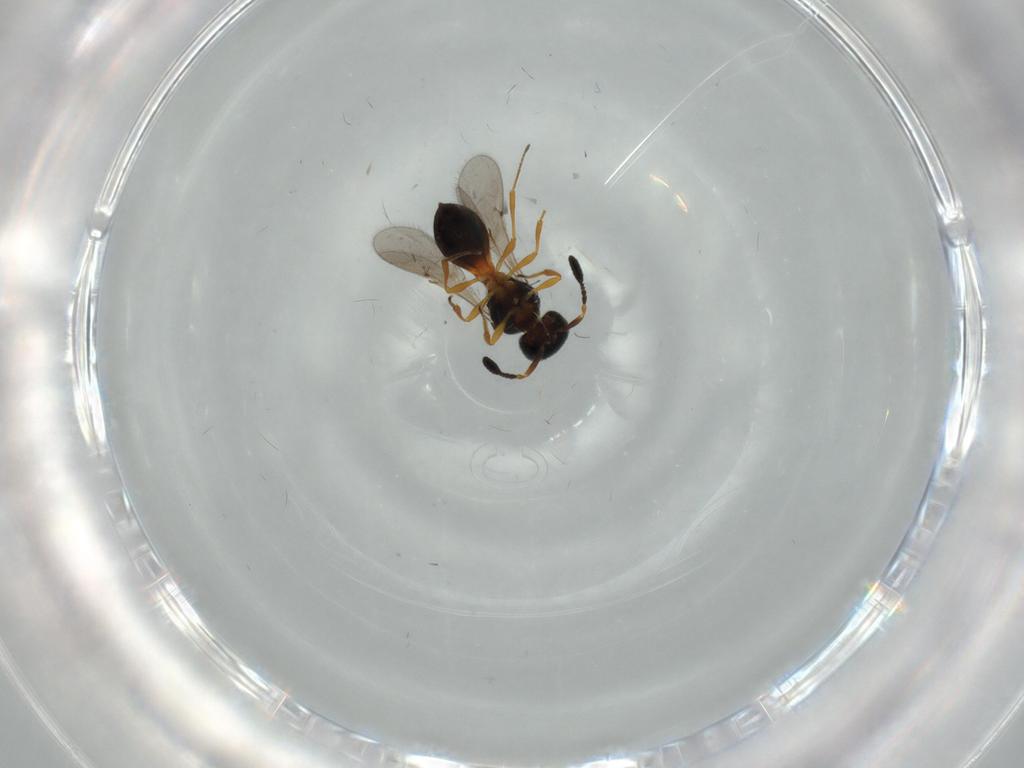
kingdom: Animalia
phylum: Arthropoda
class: Insecta
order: Hymenoptera
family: Scelionidae
